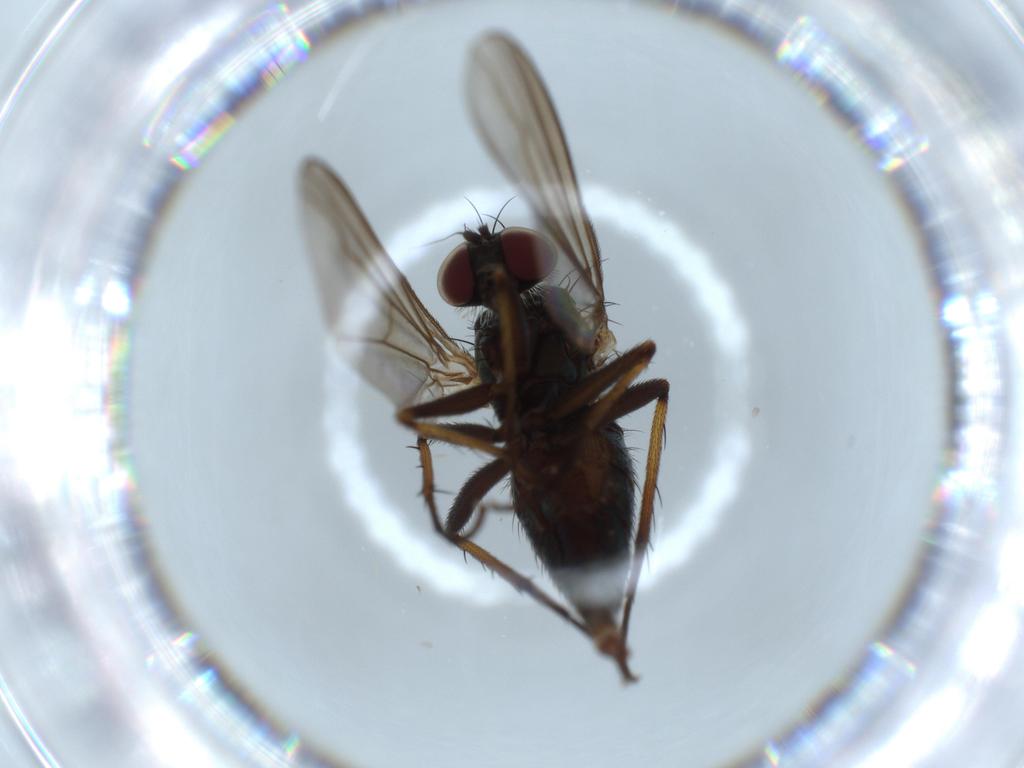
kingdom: Animalia
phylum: Arthropoda
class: Insecta
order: Diptera
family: Dolichopodidae
